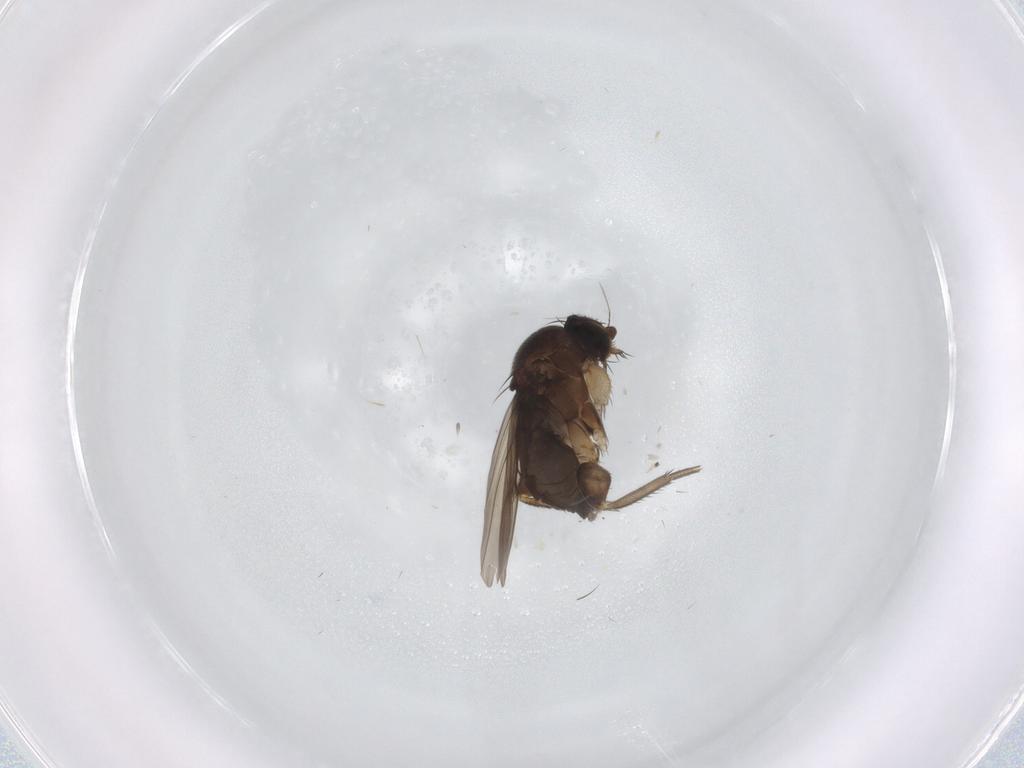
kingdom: Animalia
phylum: Arthropoda
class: Insecta
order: Diptera
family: Phoridae
